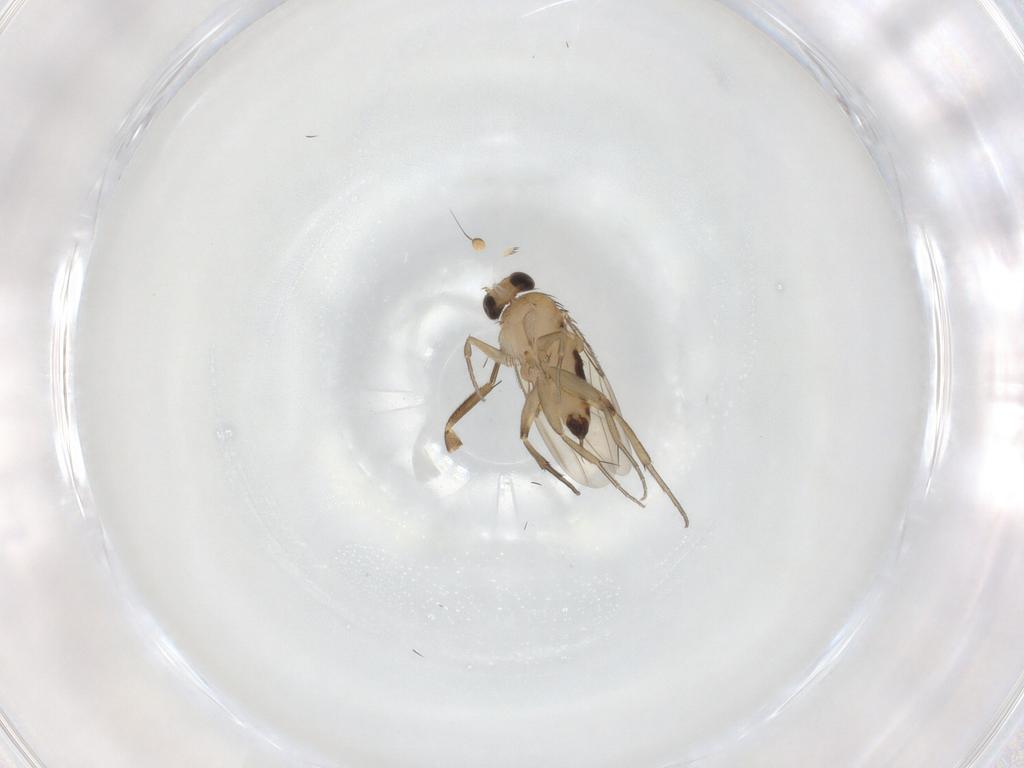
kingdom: Animalia
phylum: Arthropoda
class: Insecta
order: Diptera
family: Phoridae
